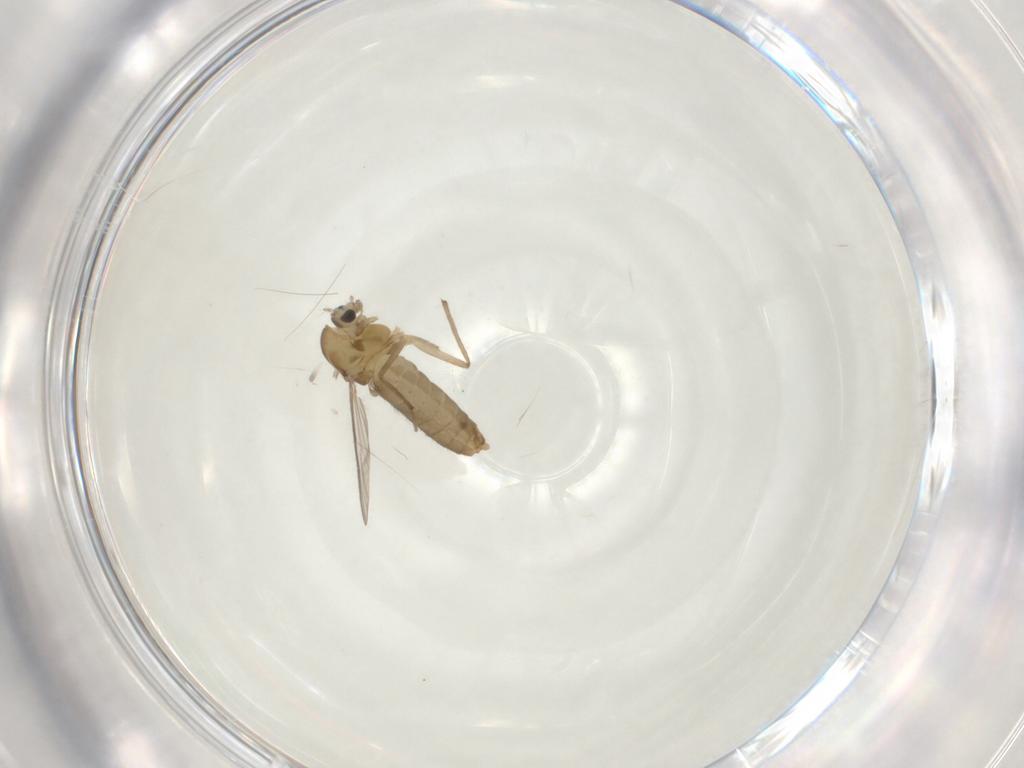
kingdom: Animalia
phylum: Arthropoda
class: Insecta
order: Diptera
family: Chironomidae
